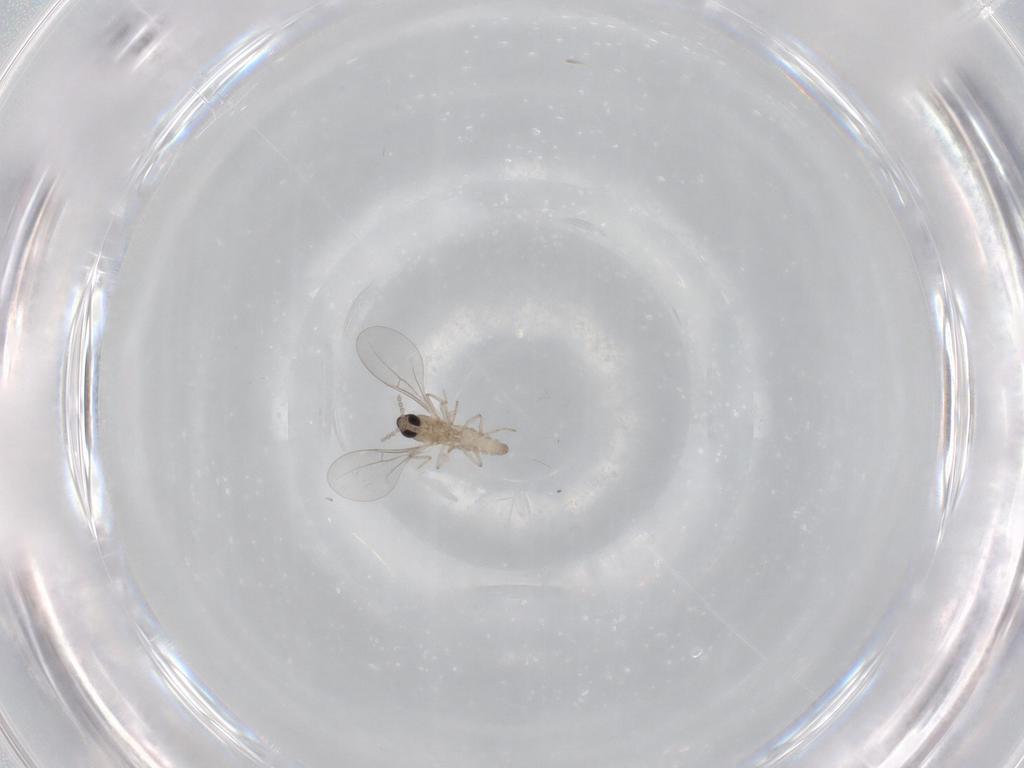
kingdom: Animalia
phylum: Arthropoda
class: Insecta
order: Diptera
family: Cecidomyiidae
